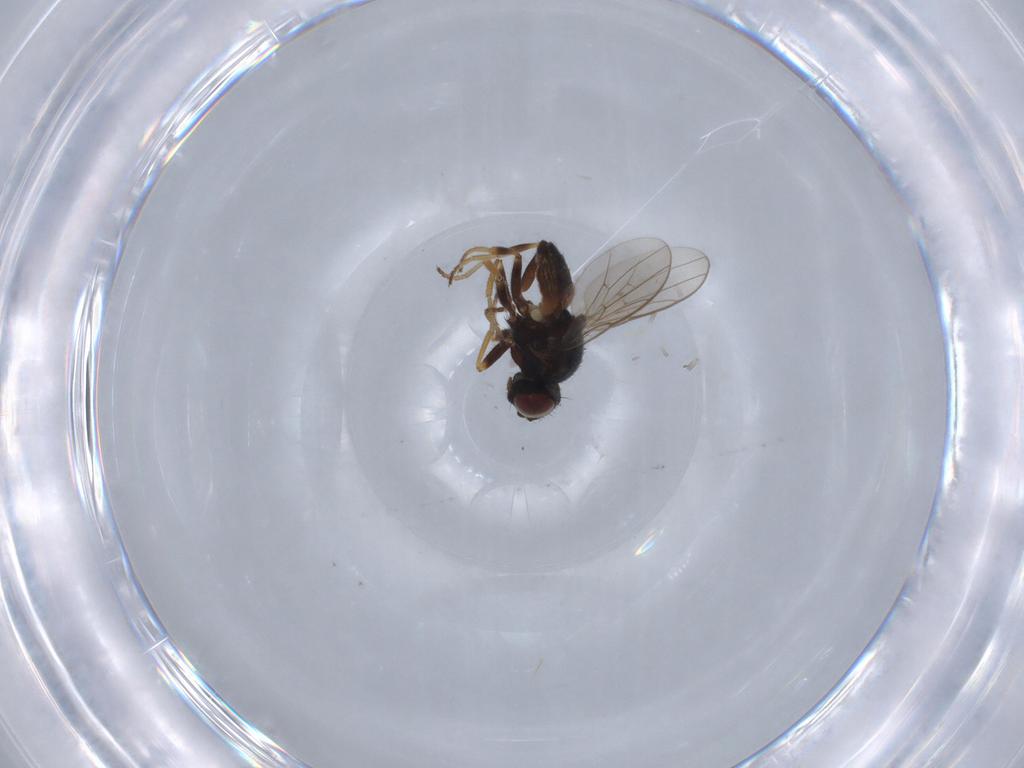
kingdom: Animalia
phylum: Arthropoda
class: Insecta
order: Diptera
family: Chloropidae
